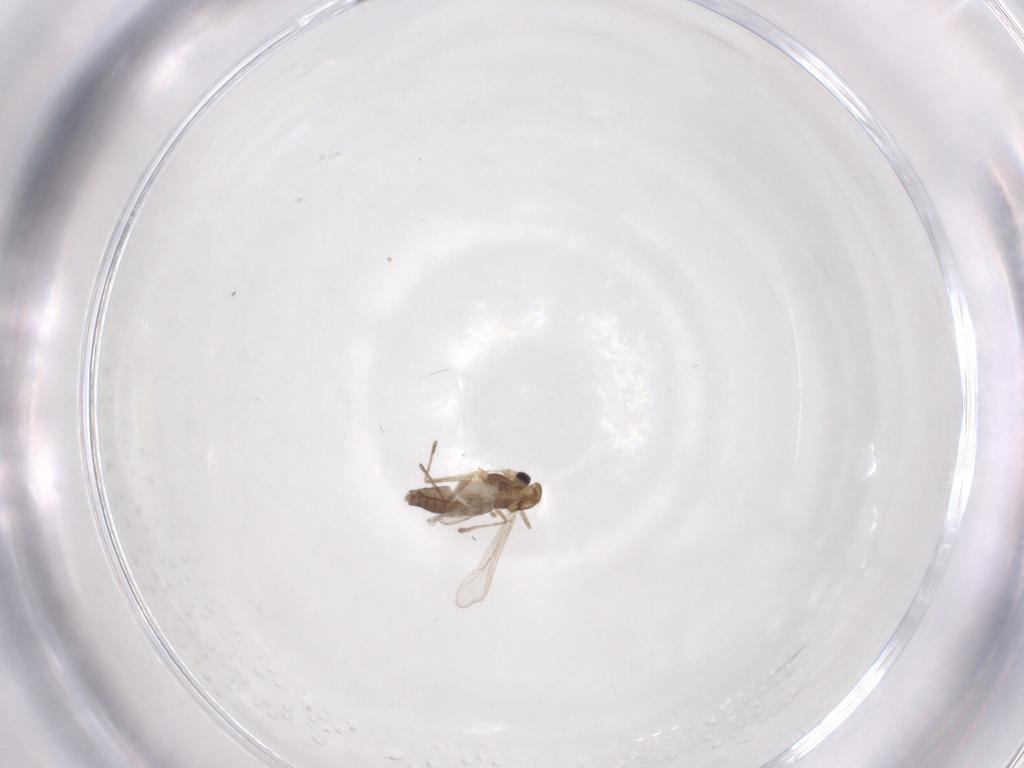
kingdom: Animalia
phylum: Arthropoda
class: Insecta
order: Diptera
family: Chironomidae
